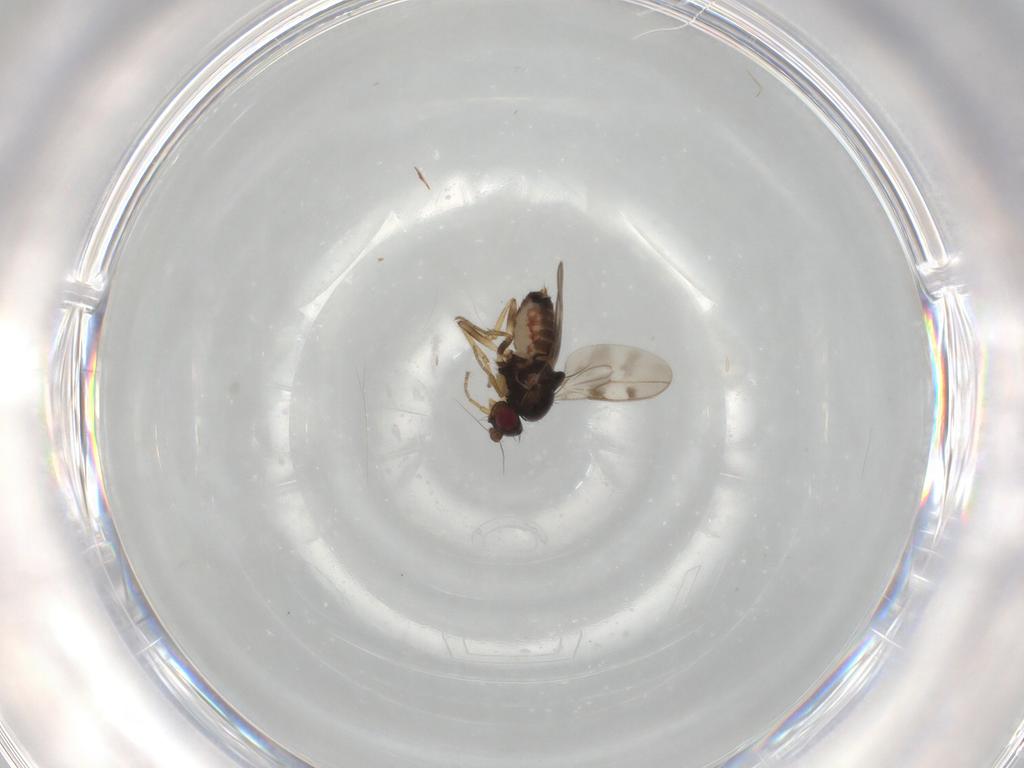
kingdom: Animalia
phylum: Arthropoda
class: Insecta
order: Diptera
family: Sphaeroceridae
